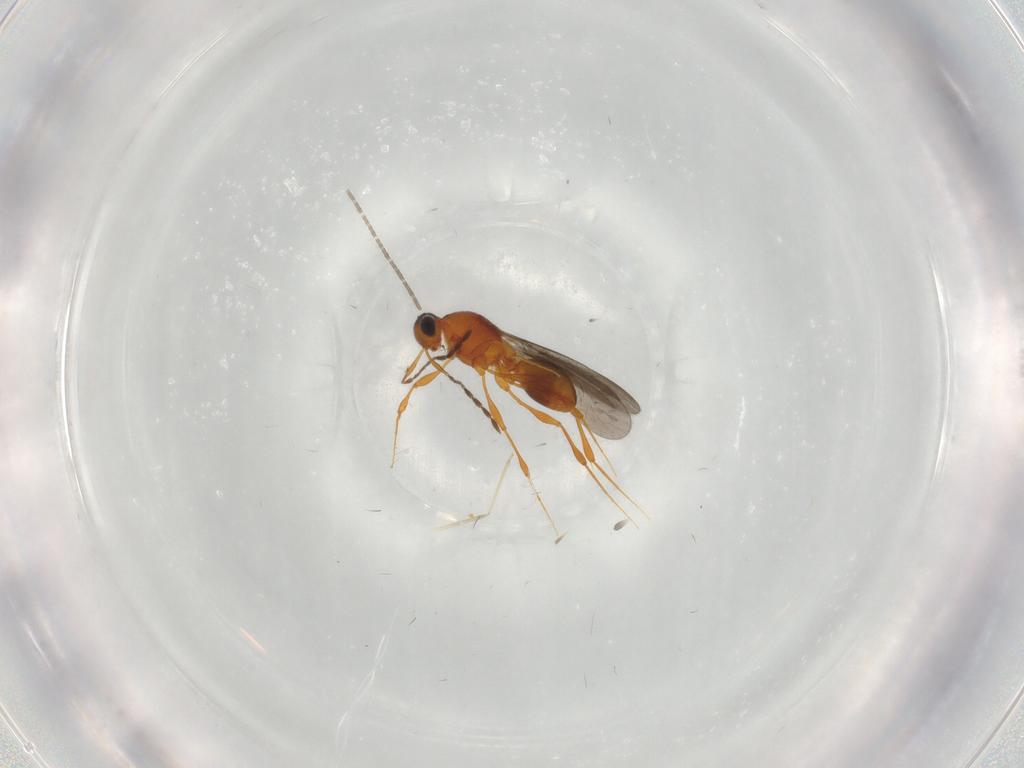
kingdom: Animalia
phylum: Arthropoda
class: Insecta
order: Hymenoptera
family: Platygastridae
